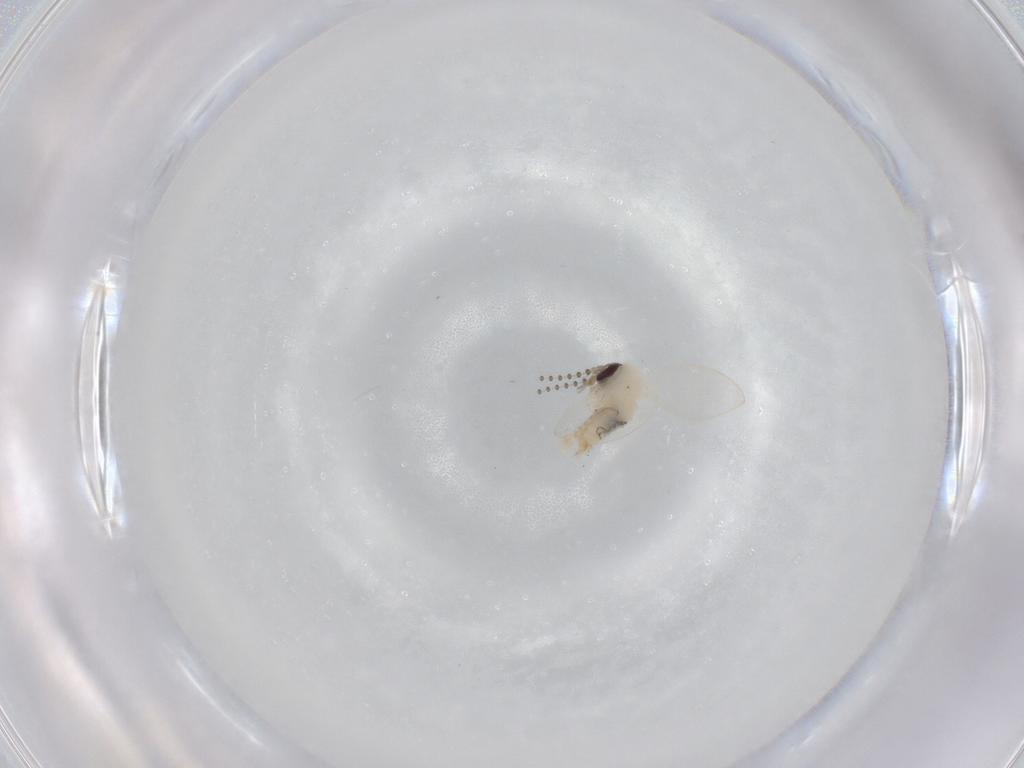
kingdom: Animalia
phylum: Arthropoda
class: Insecta
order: Diptera
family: Psychodidae
